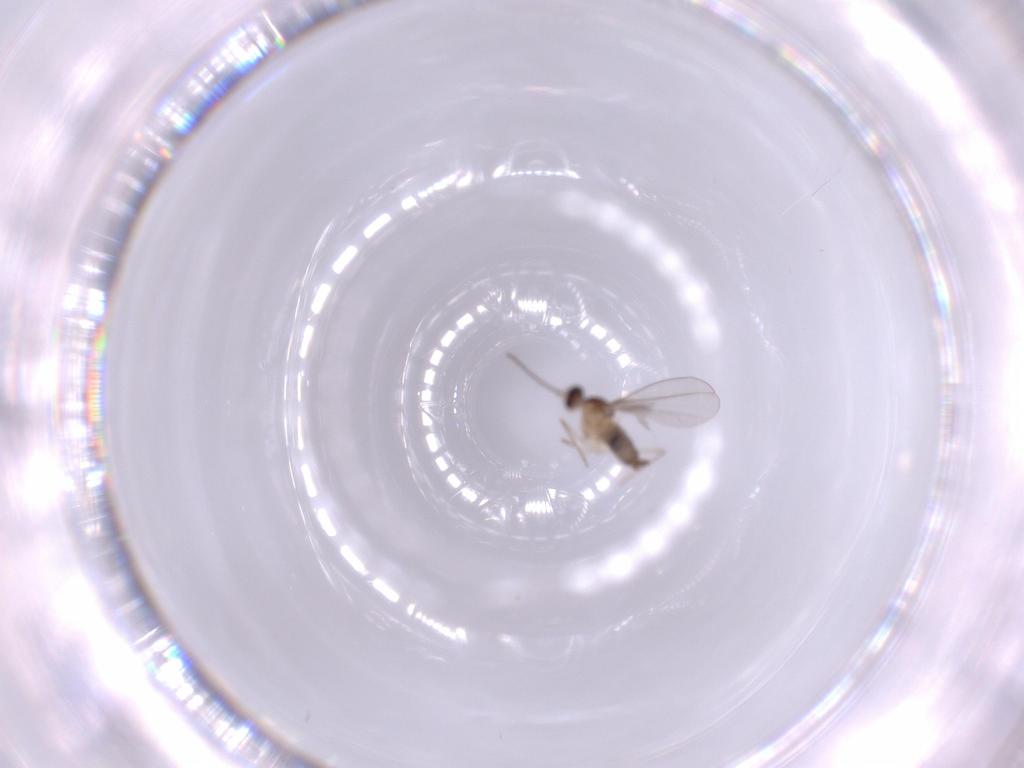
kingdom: Animalia
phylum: Arthropoda
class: Insecta
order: Diptera
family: Cecidomyiidae
